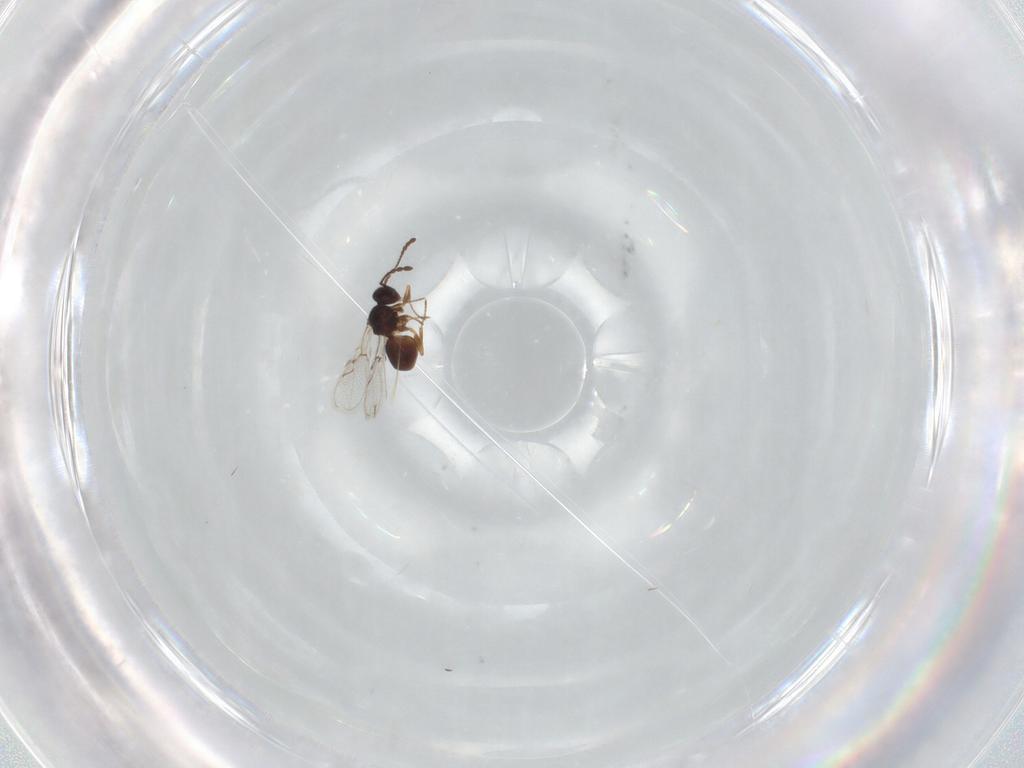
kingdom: Animalia
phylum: Arthropoda
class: Insecta
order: Hymenoptera
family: Figitidae
